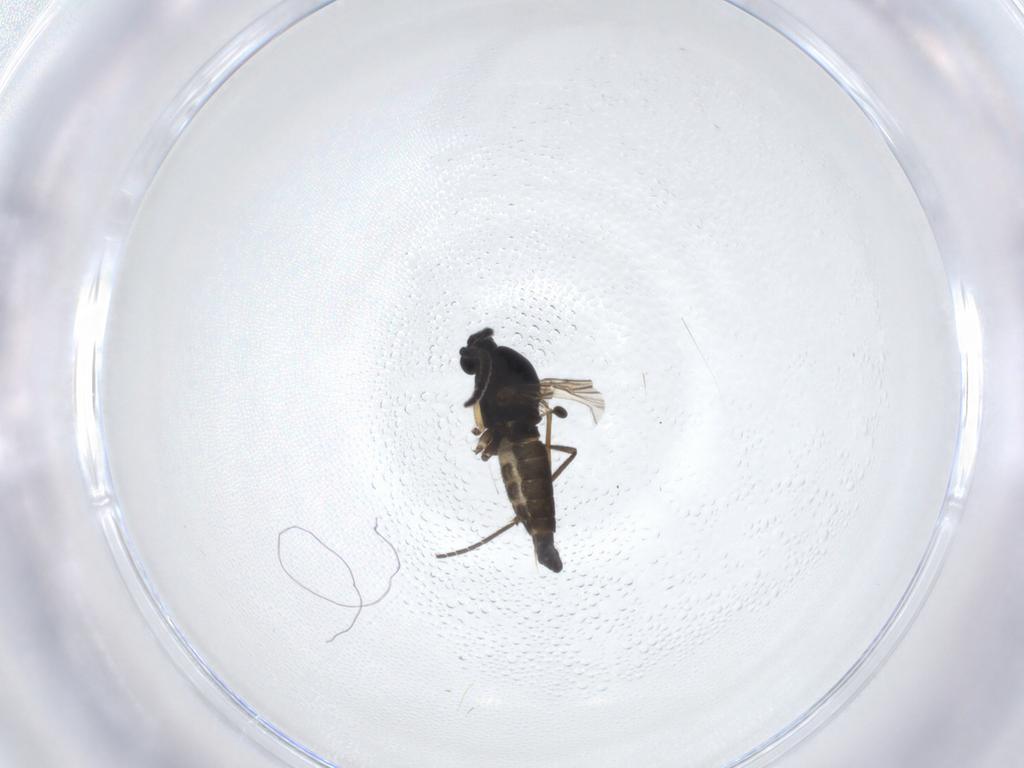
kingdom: Animalia
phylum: Arthropoda
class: Insecta
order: Diptera
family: Sciaridae
